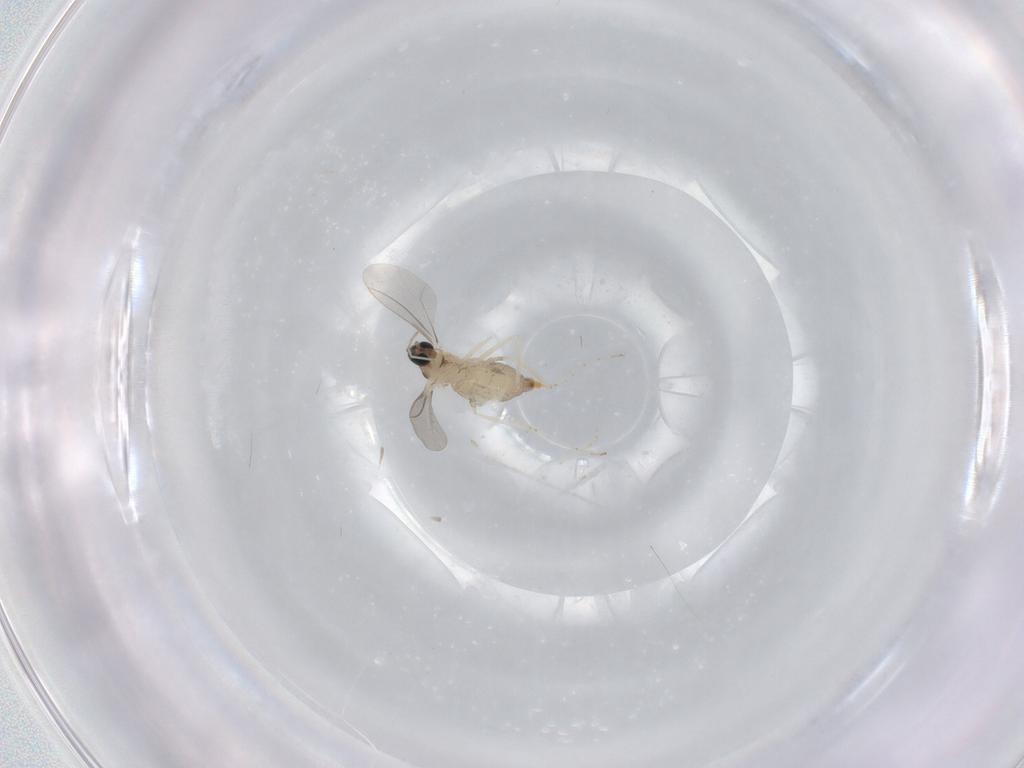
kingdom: Animalia
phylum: Arthropoda
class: Insecta
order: Diptera
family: Cecidomyiidae
